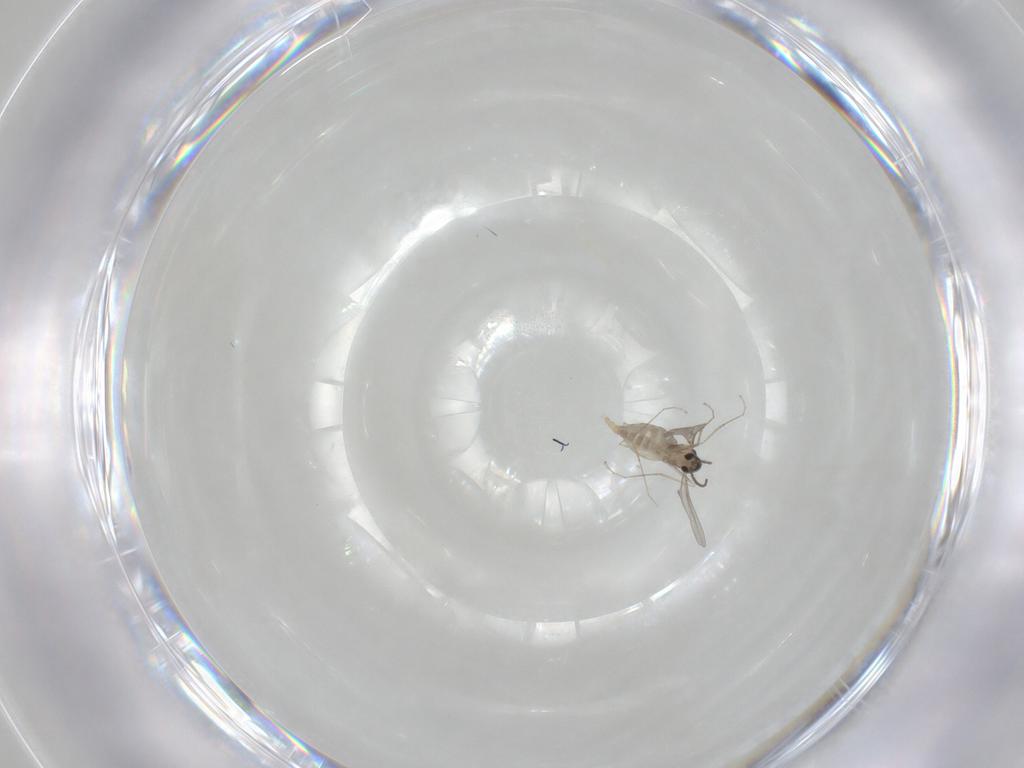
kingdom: Animalia
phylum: Arthropoda
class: Insecta
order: Diptera
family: Cecidomyiidae
